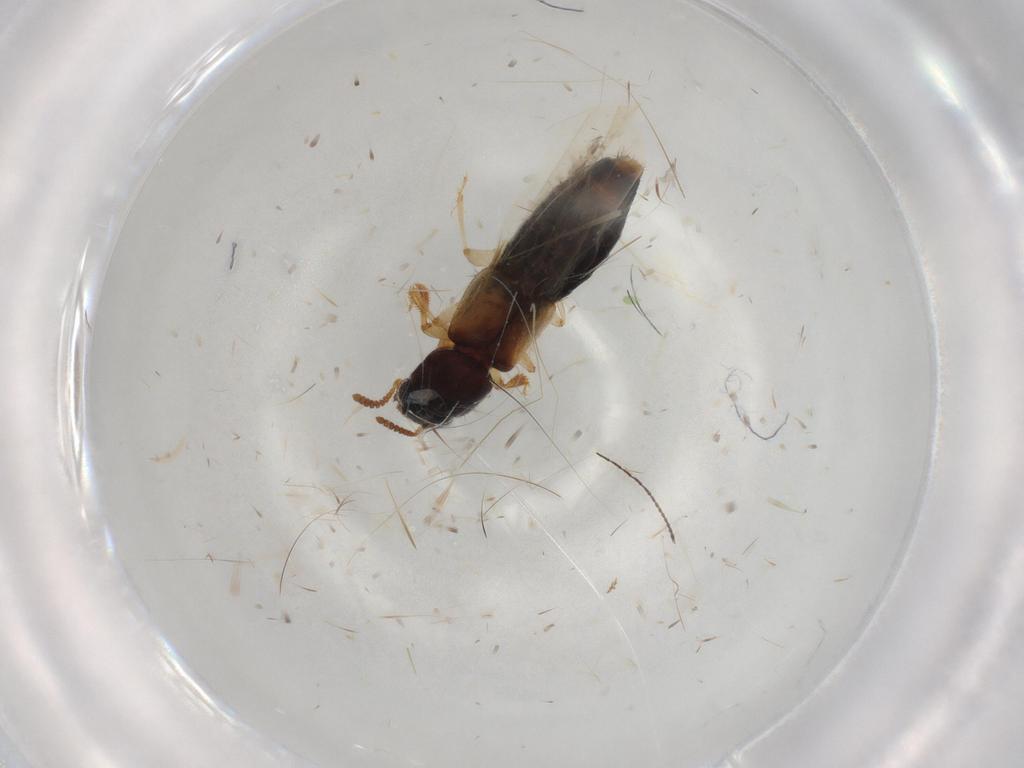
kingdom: Animalia
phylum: Arthropoda
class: Insecta
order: Coleoptera
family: Staphylinidae
